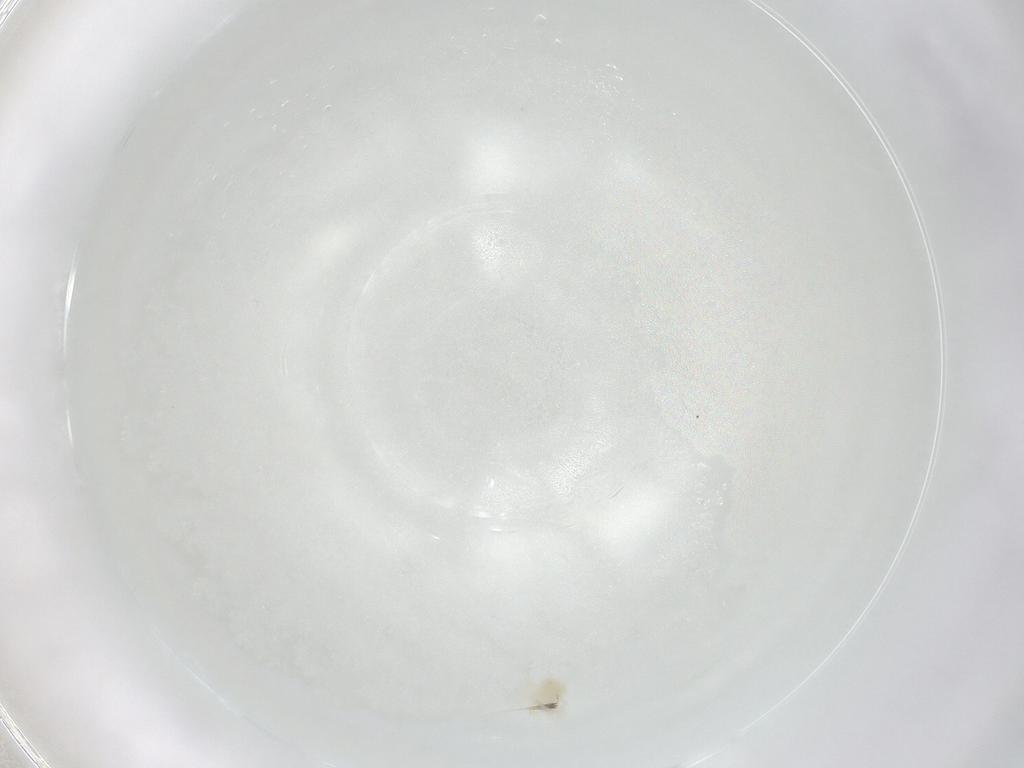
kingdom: Animalia
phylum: Arthropoda
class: Arachnida
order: Trombidiformes
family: Anystidae
